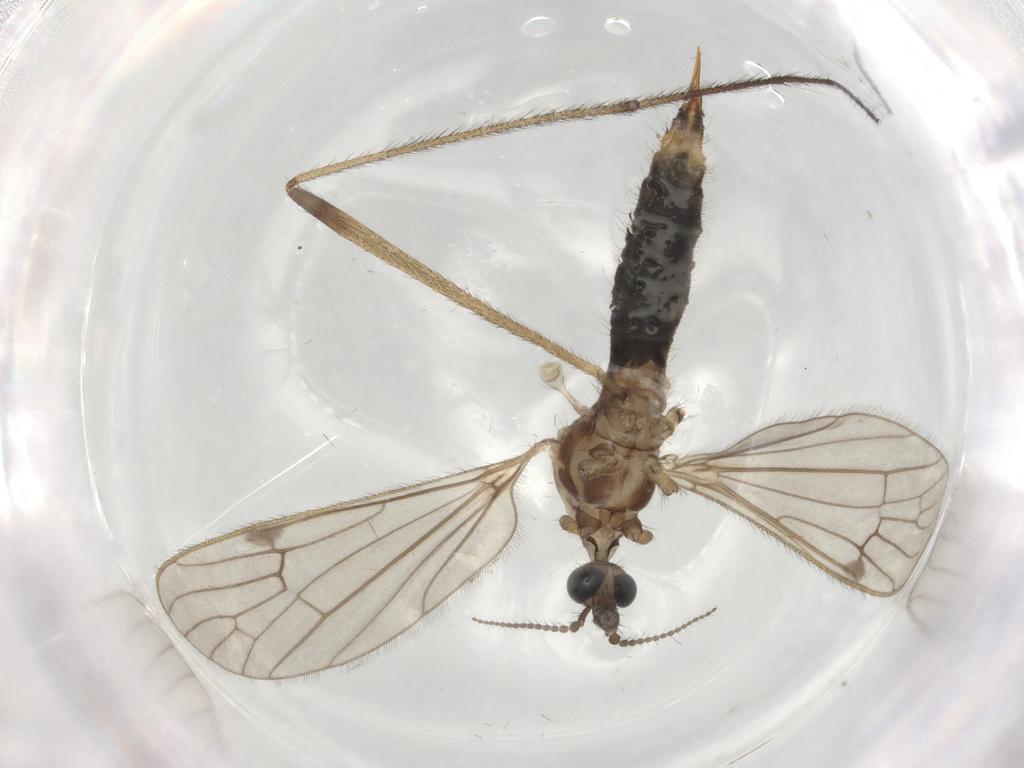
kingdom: Animalia
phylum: Arthropoda
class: Insecta
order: Diptera
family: Limoniidae
